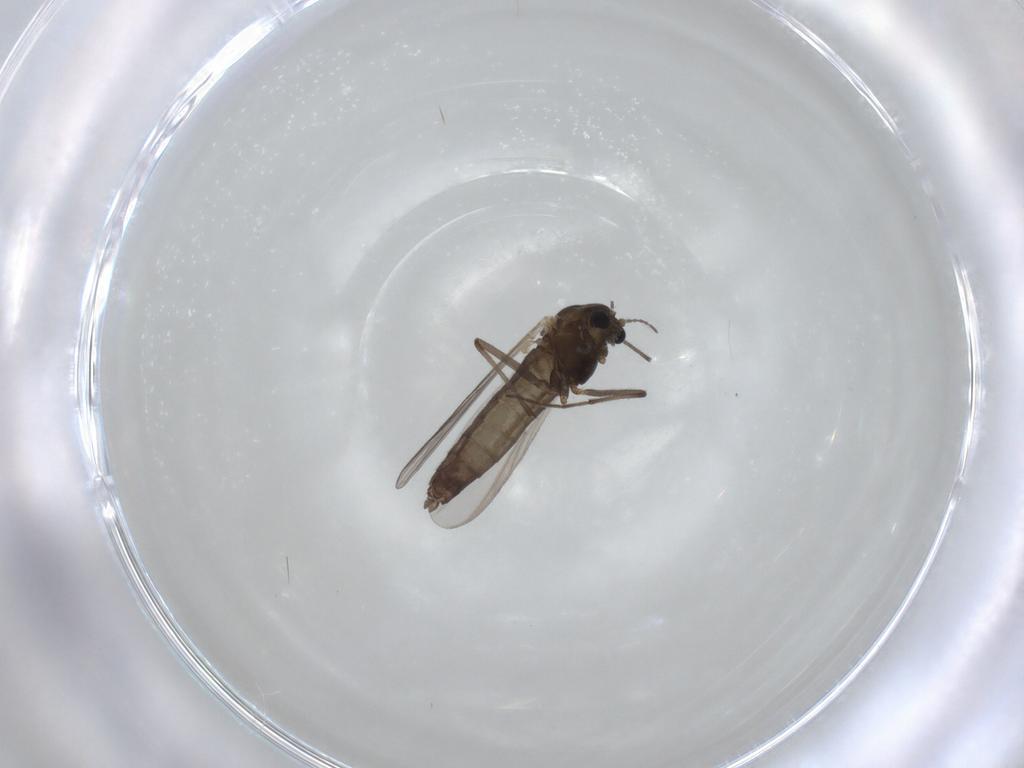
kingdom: Animalia
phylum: Arthropoda
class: Insecta
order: Diptera
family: Chironomidae
